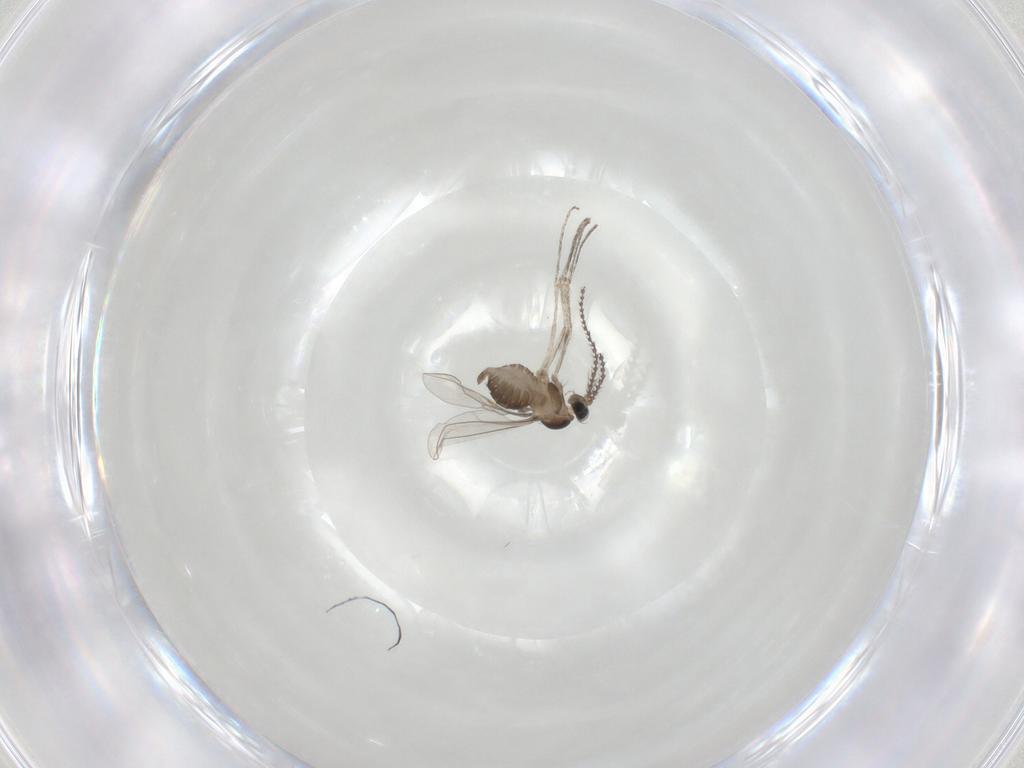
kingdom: Animalia
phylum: Arthropoda
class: Insecta
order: Diptera
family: Cecidomyiidae
